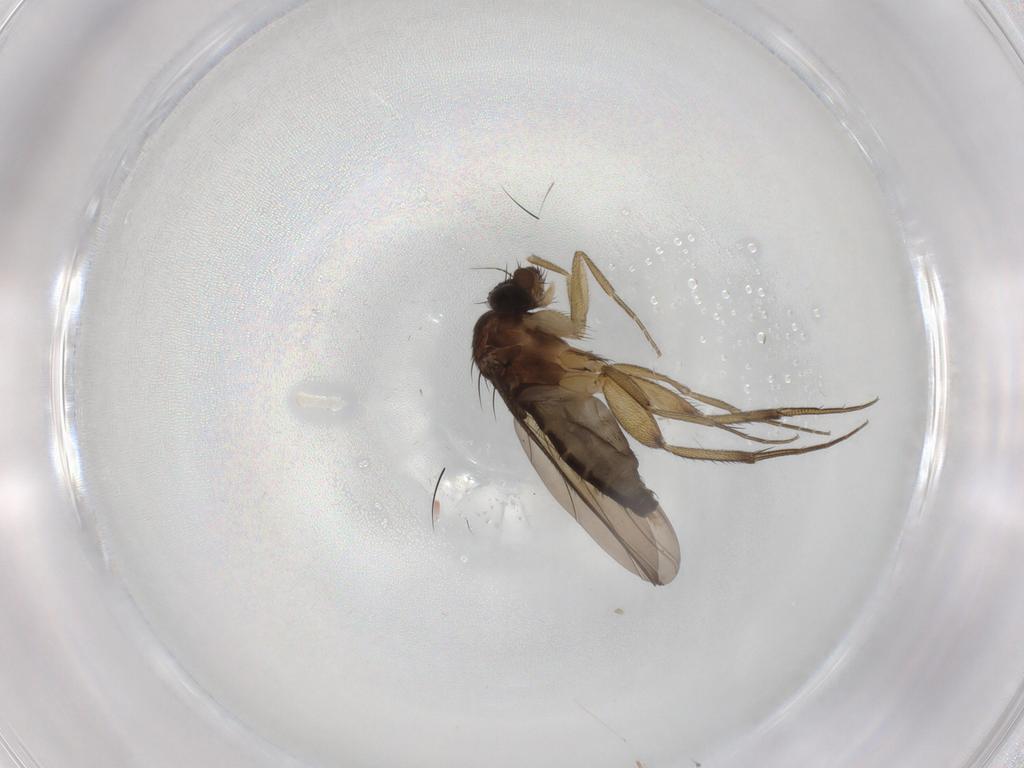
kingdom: Animalia
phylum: Arthropoda
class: Insecta
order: Diptera
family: Phoridae
